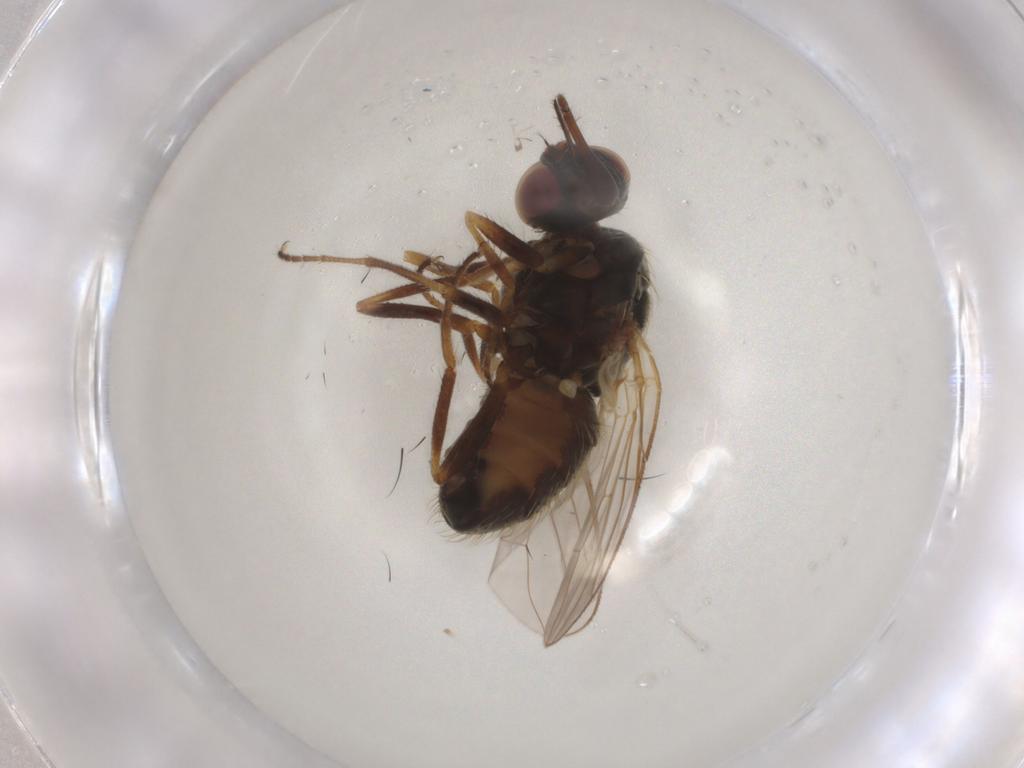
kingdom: Animalia
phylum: Arthropoda
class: Insecta
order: Diptera
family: Muscidae
